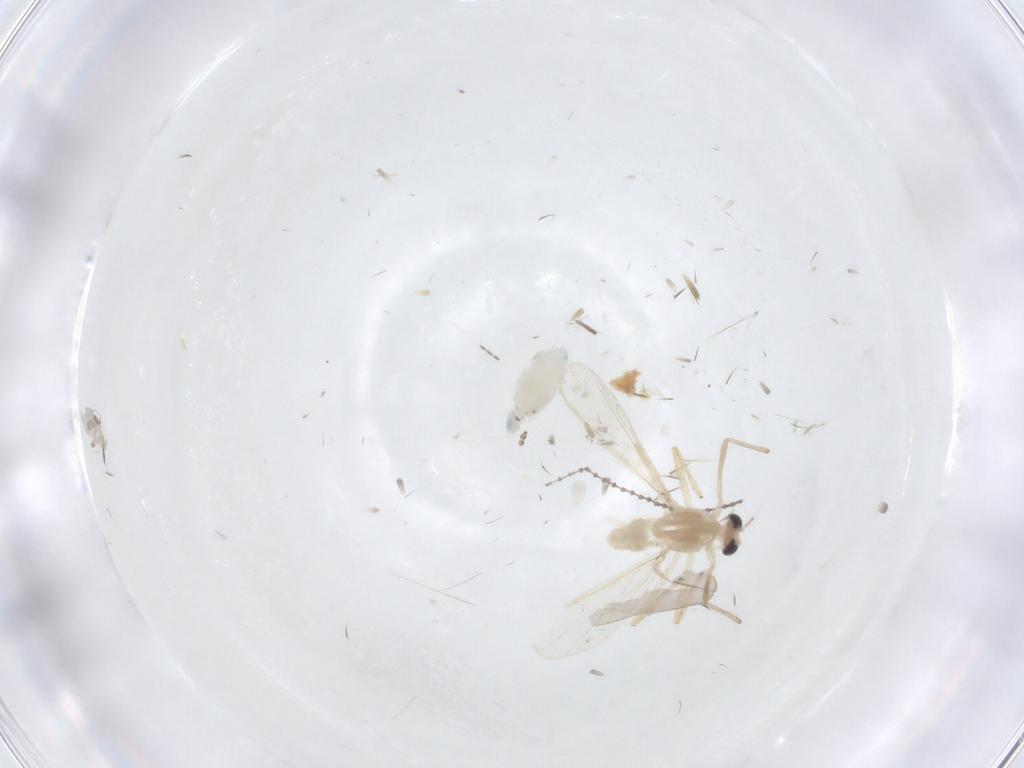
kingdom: Animalia
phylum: Arthropoda
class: Insecta
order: Diptera
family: Chironomidae
